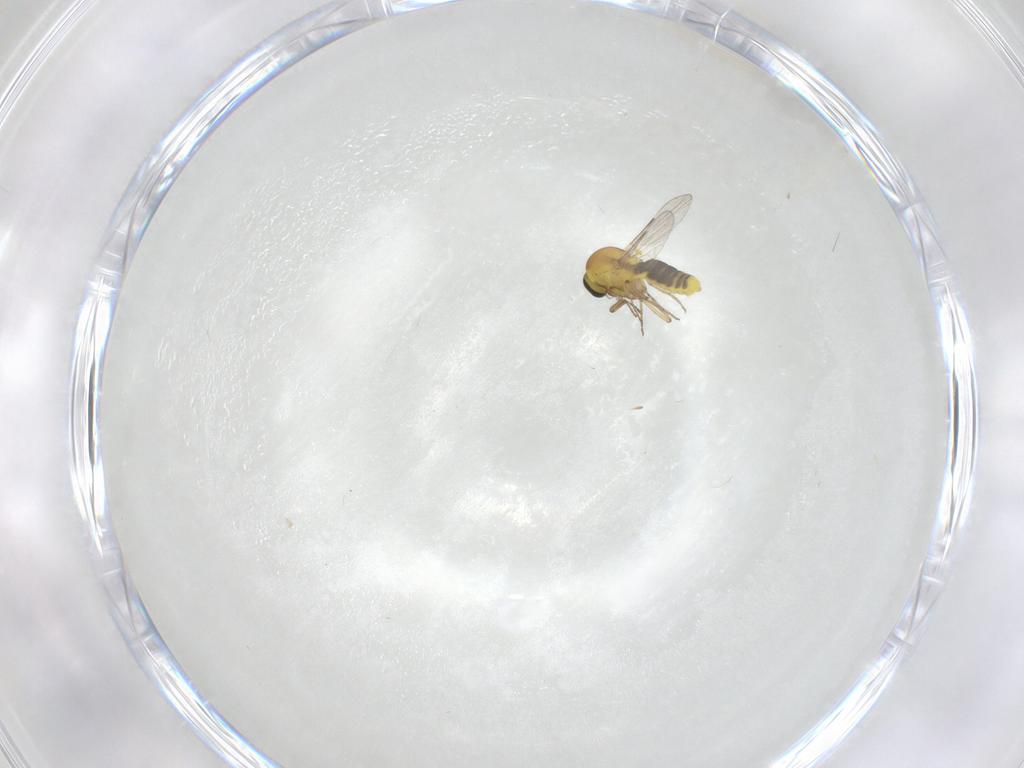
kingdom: Animalia
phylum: Arthropoda
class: Insecta
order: Diptera
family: Ceratopogonidae
